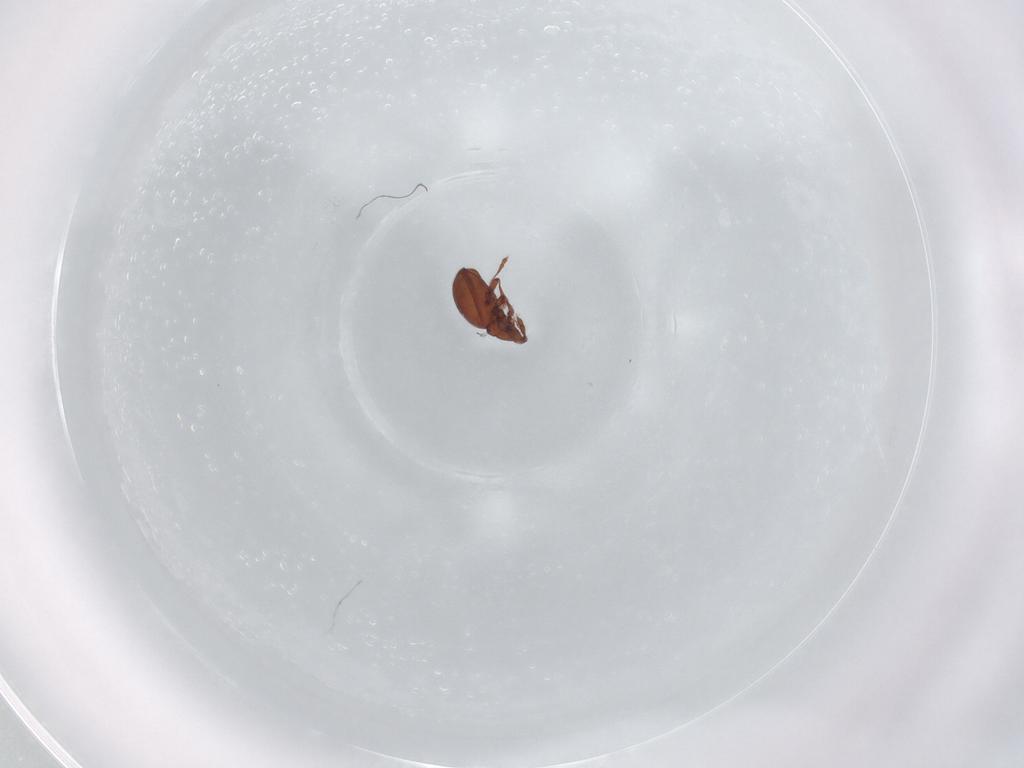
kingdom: Animalia
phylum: Arthropoda
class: Arachnida
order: Sarcoptiformes
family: Eremaeidae
